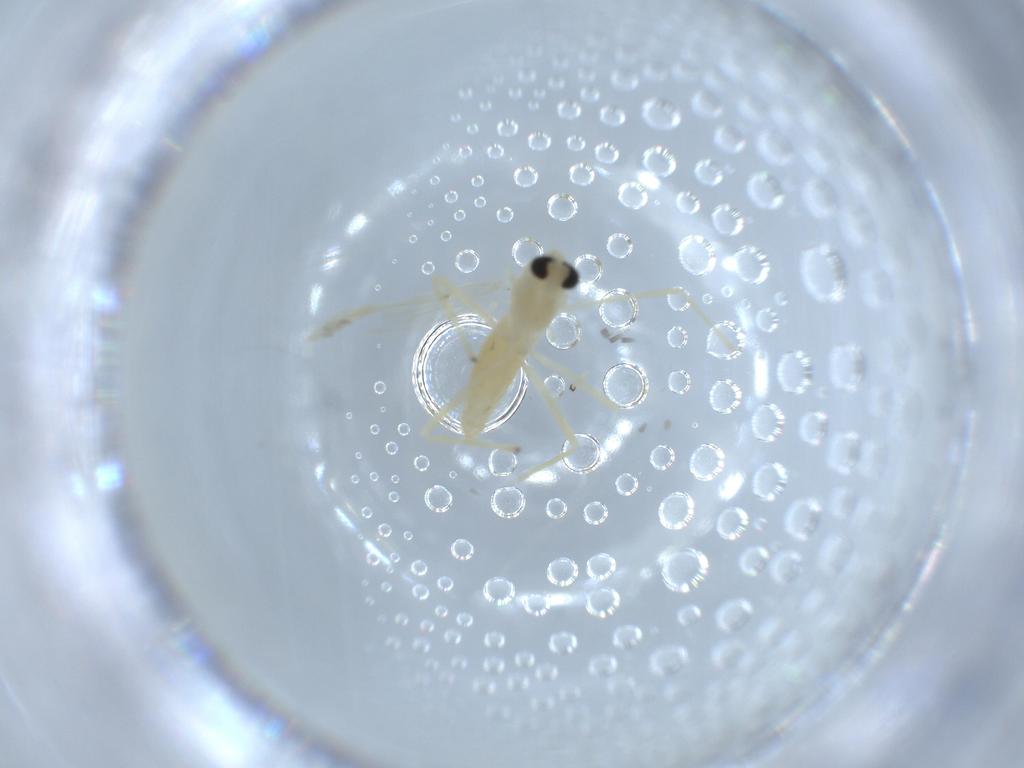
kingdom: Animalia
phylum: Arthropoda
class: Insecta
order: Diptera
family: Chironomidae
